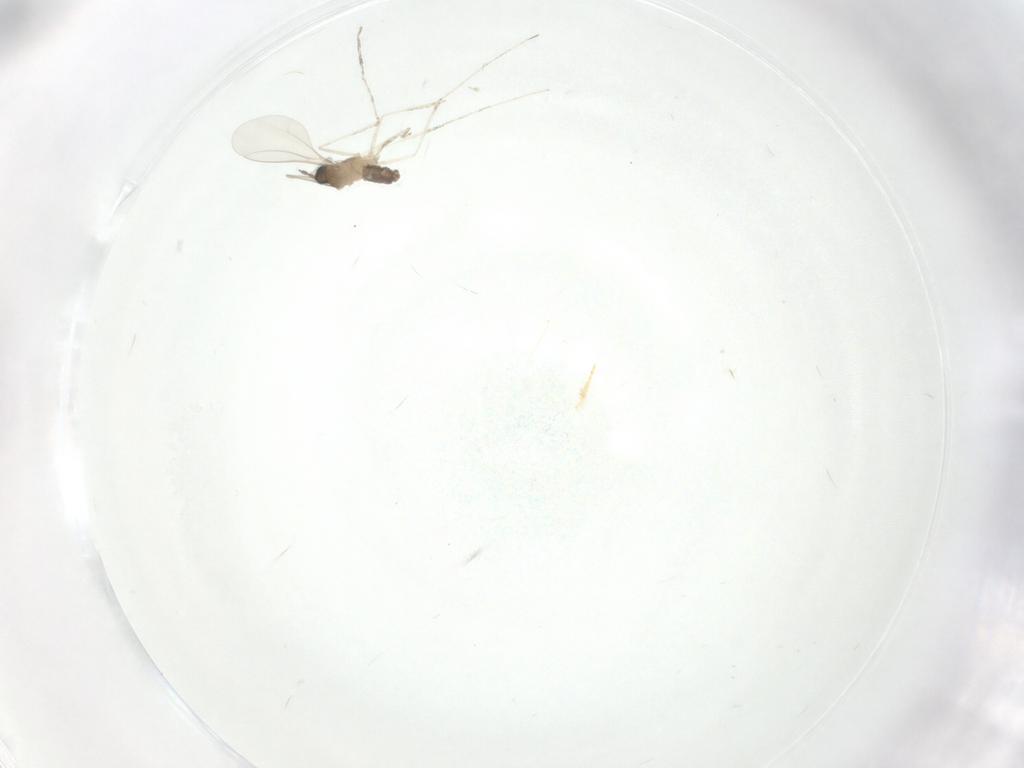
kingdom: Animalia
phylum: Arthropoda
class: Insecta
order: Diptera
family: Cecidomyiidae
